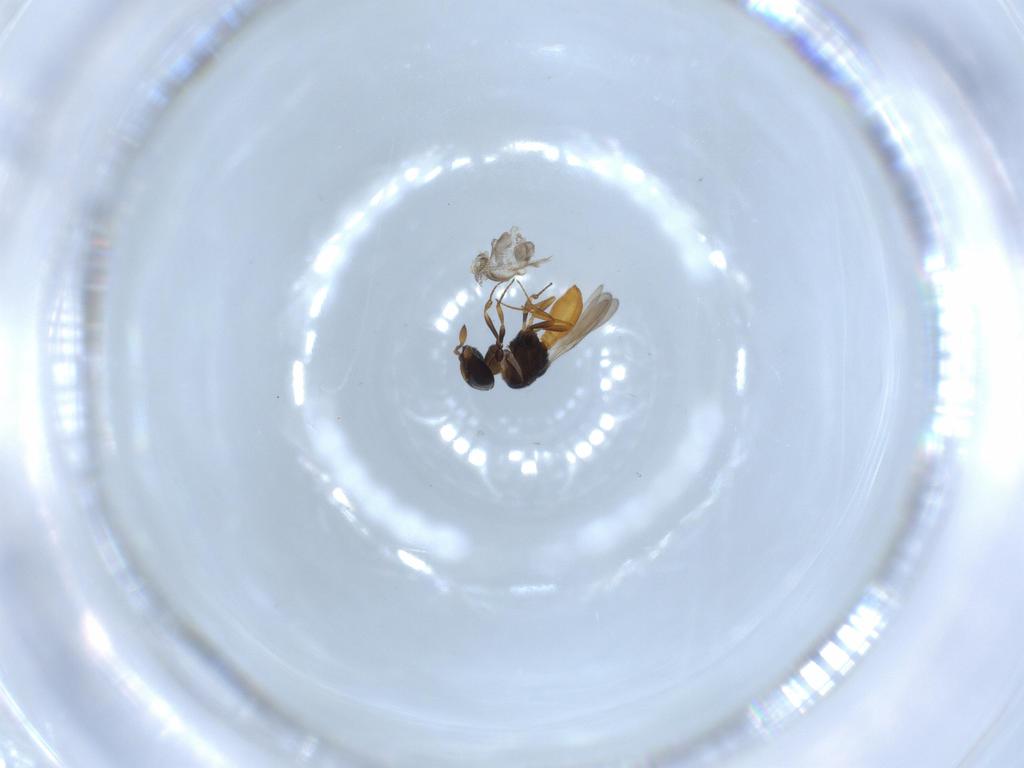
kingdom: Animalia
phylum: Arthropoda
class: Insecta
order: Hymenoptera
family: Scelionidae
